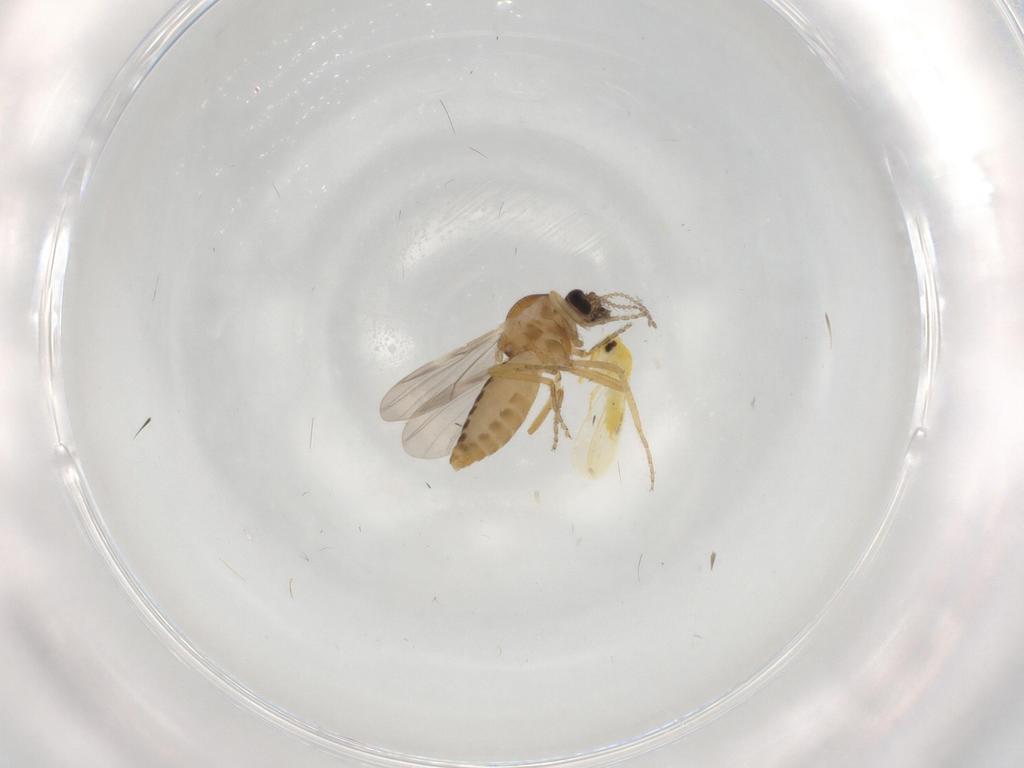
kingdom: Animalia
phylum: Arthropoda
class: Insecta
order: Diptera
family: Ceratopogonidae
